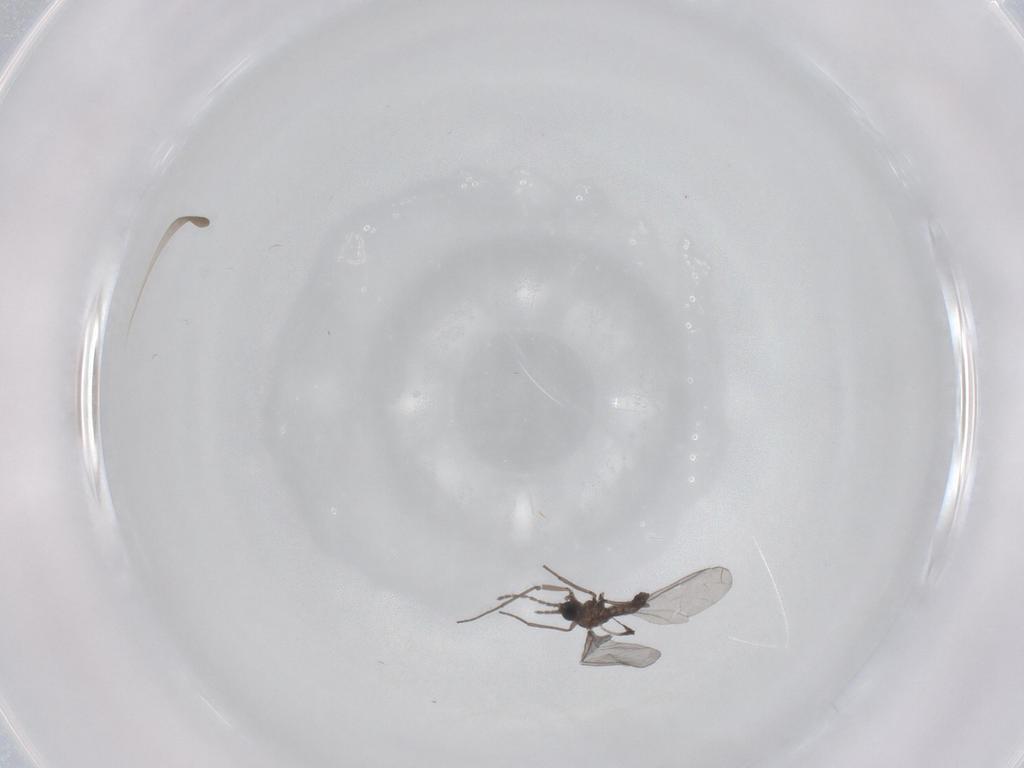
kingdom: Animalia
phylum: Arthropoda
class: Insecta
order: Diptera
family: Sciaridae
